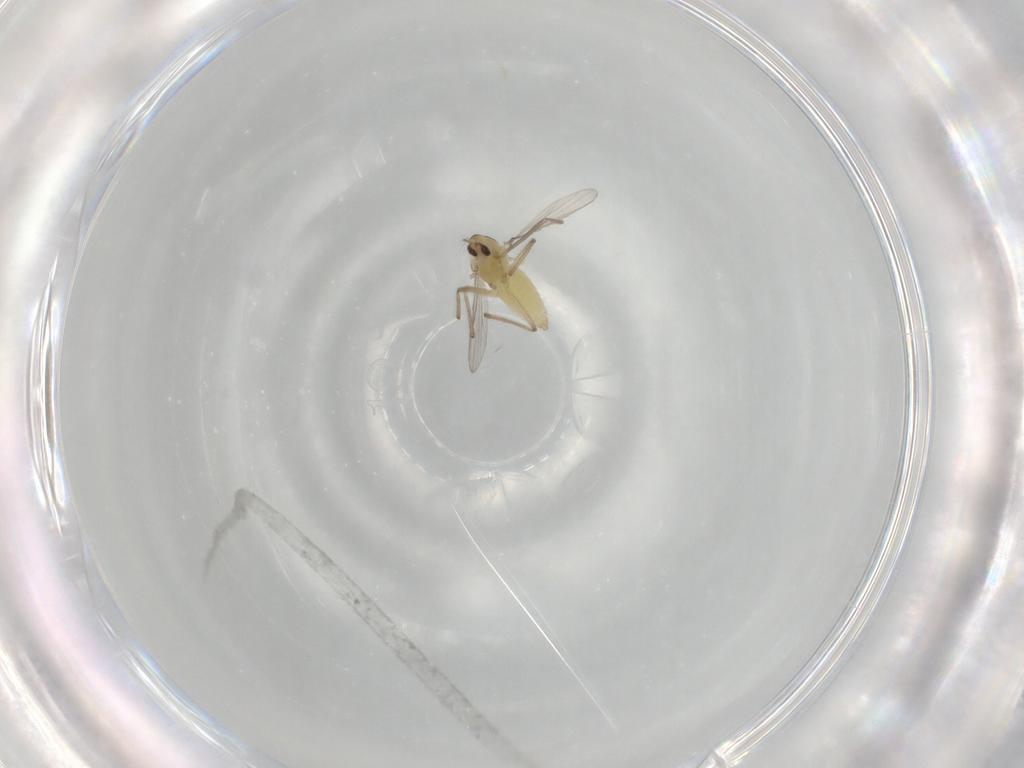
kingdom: Animalia
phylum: Arthropoda
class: Insecta
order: Diptera
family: Chironomidae
